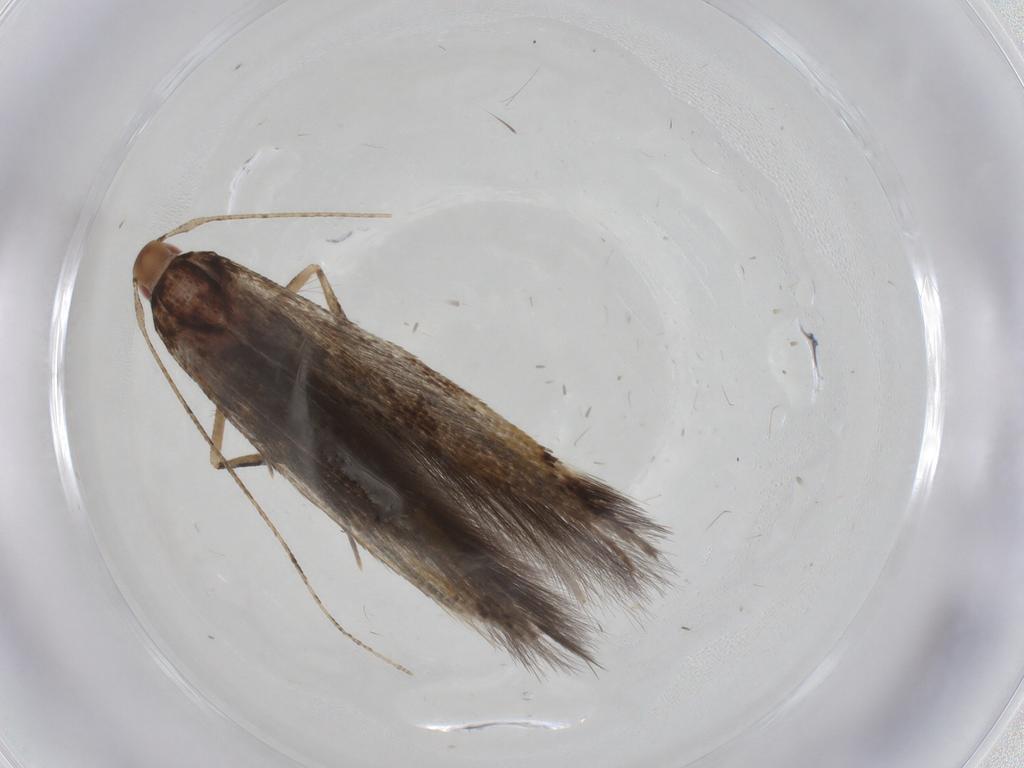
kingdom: Animalia
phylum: Arthropoda
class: Insecta
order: Lepidoptera
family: Cosmopterigidae
